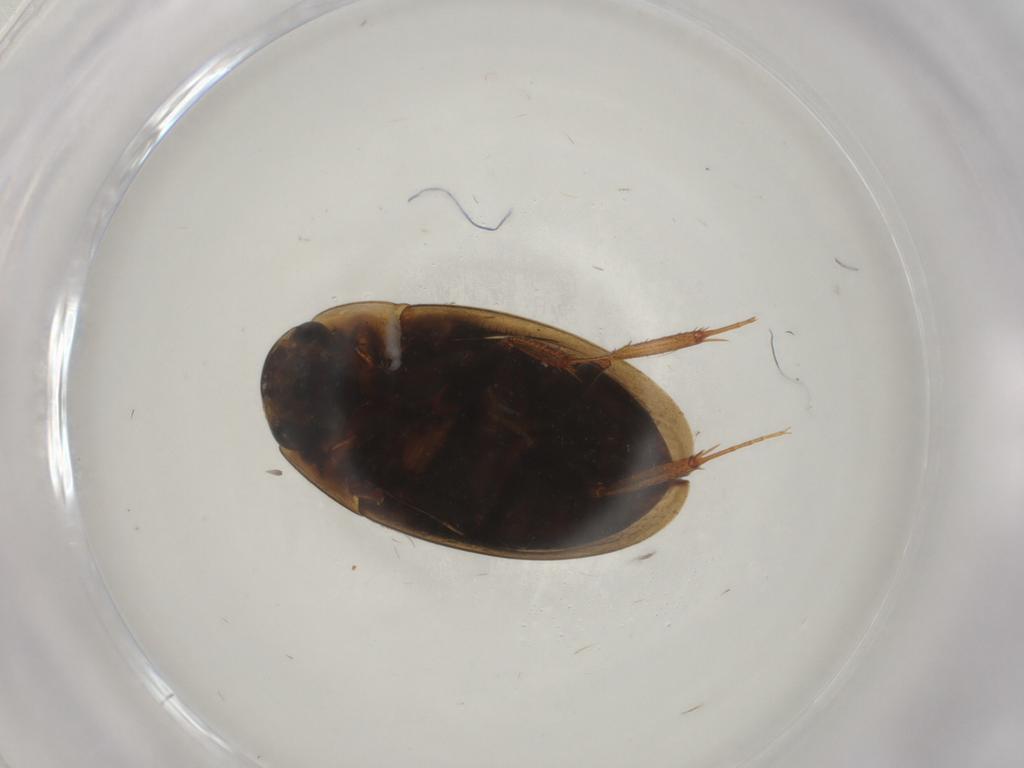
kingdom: Animalia
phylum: Arthropoda
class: Insecta
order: Coleoptera
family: Hydrophilidae
